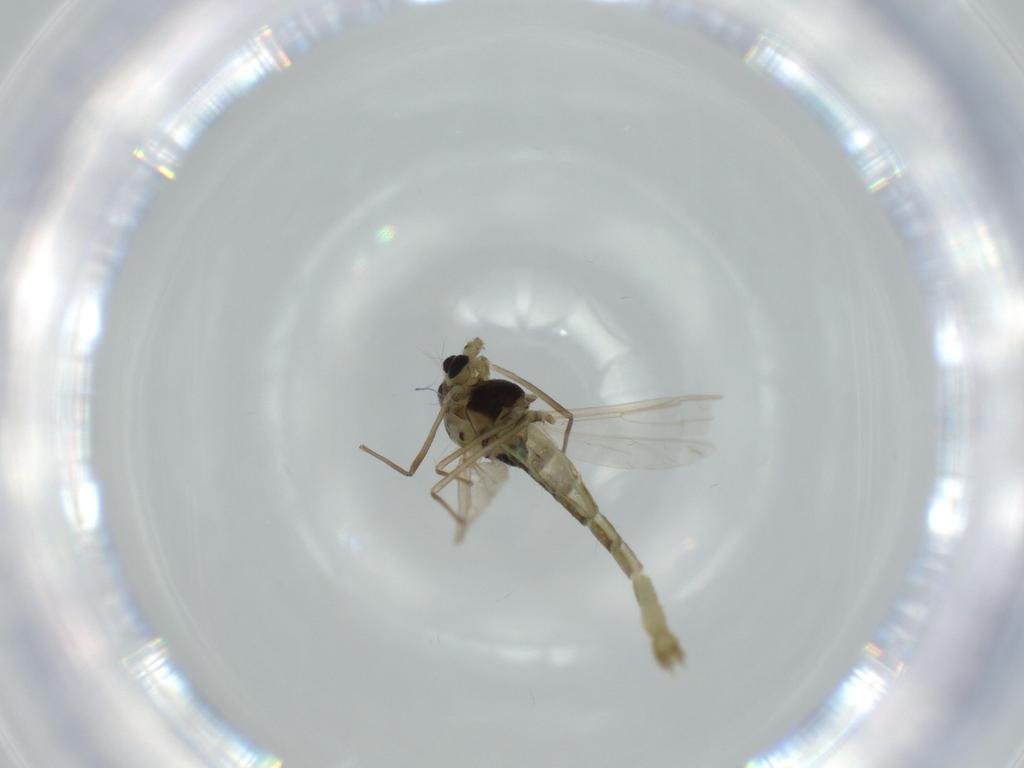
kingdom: Animalia
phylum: Arthropoda
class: Insecta
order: Diptera
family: Chironomidae
